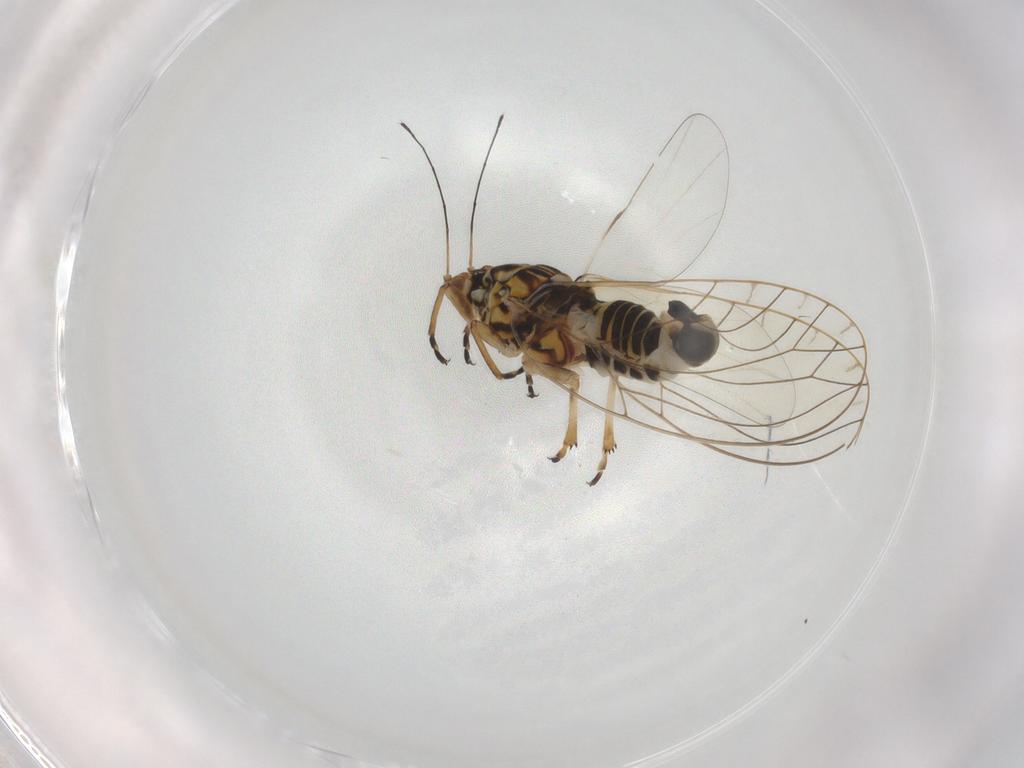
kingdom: Animalia
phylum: Arthropoda
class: Insecta
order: Hemiptera
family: Triozidae
